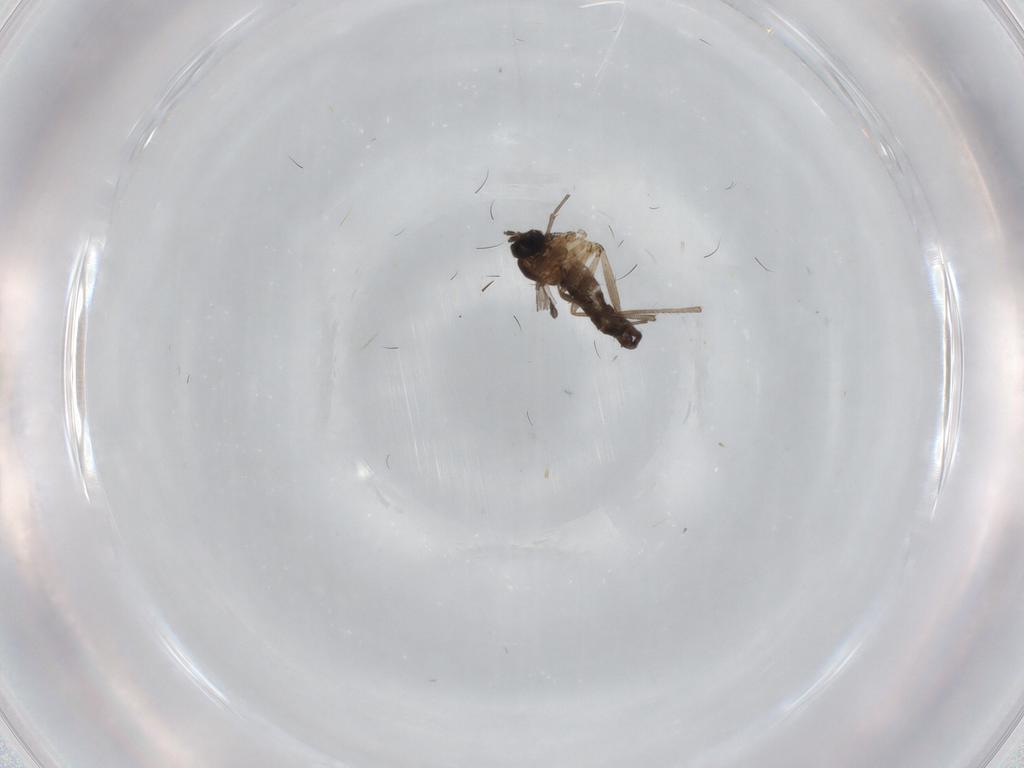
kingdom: Animalia
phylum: Arthropoda
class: Insecta
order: Diptera
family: Sciaridae
